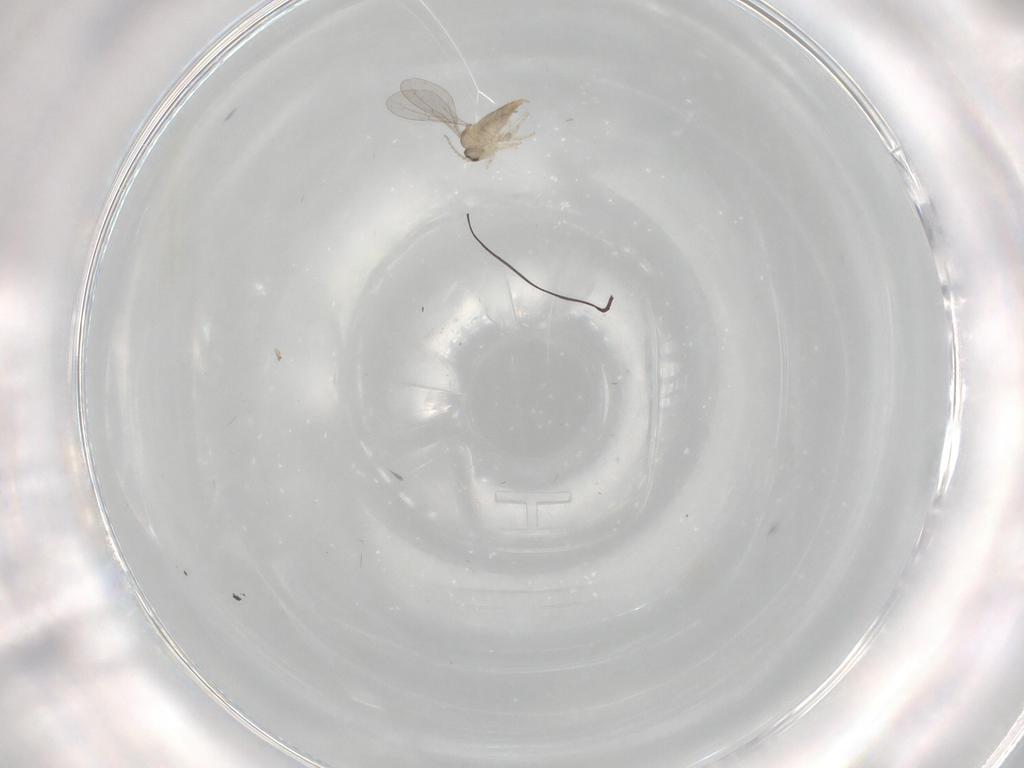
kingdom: Animalia
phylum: Arthropoda
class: Insecta
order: Diptera
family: Cecidomyiidae
